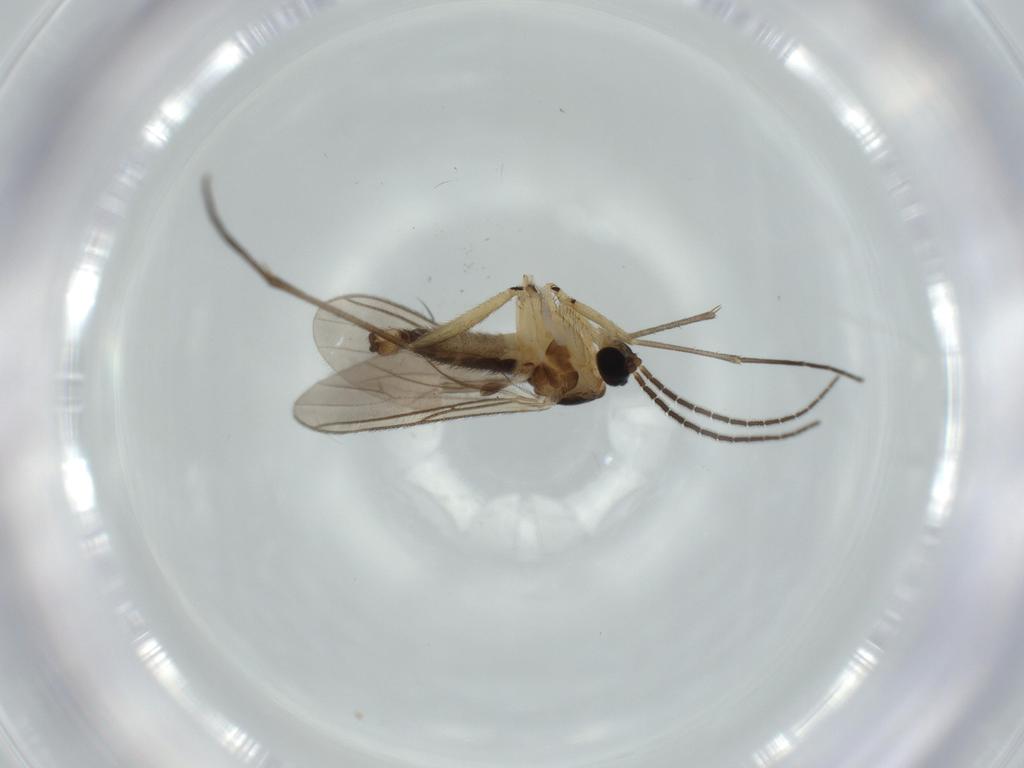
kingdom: Animalia
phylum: Arthropoda
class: Insecta
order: Diptera
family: Sciaridae
